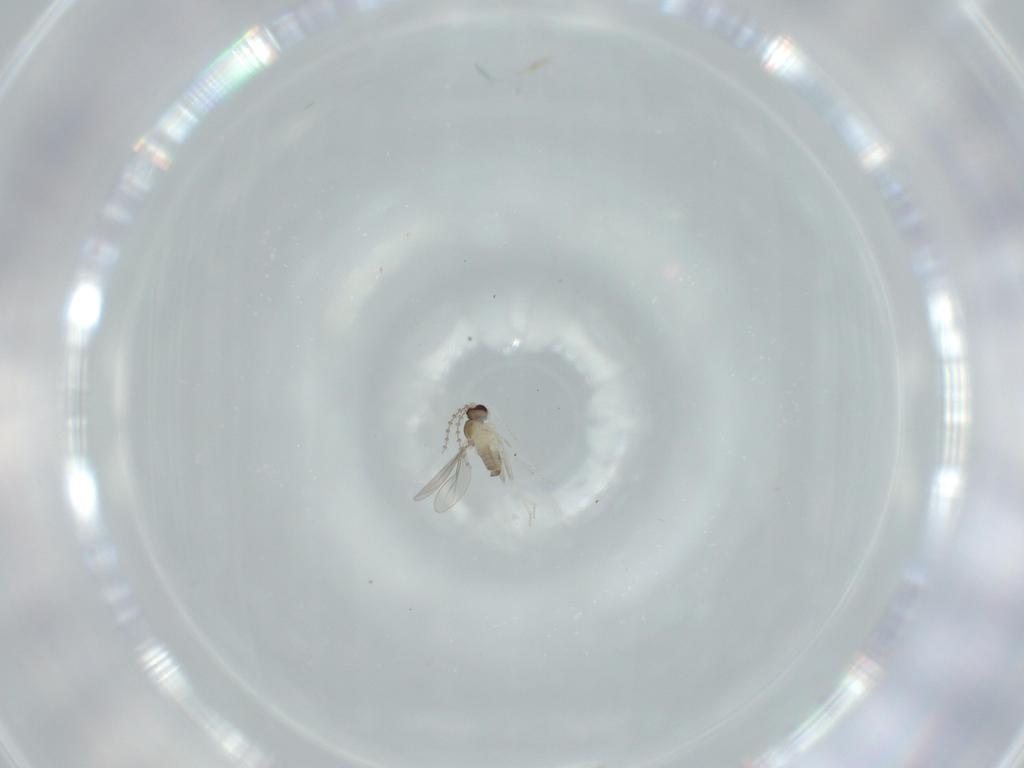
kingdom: Animalia
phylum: Arthropoda
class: Insecta
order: Diptera
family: Cecidomyiidae
